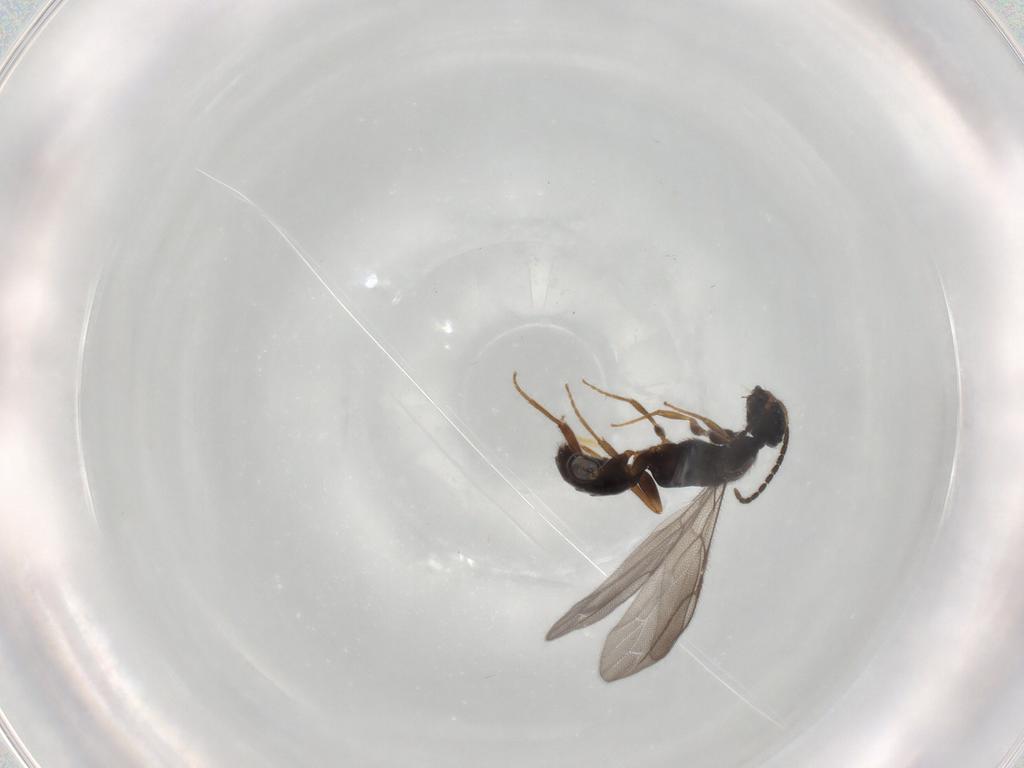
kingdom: Animalia
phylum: Arthropoda
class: Insecta
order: Hymenoptera
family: Bethylidae
